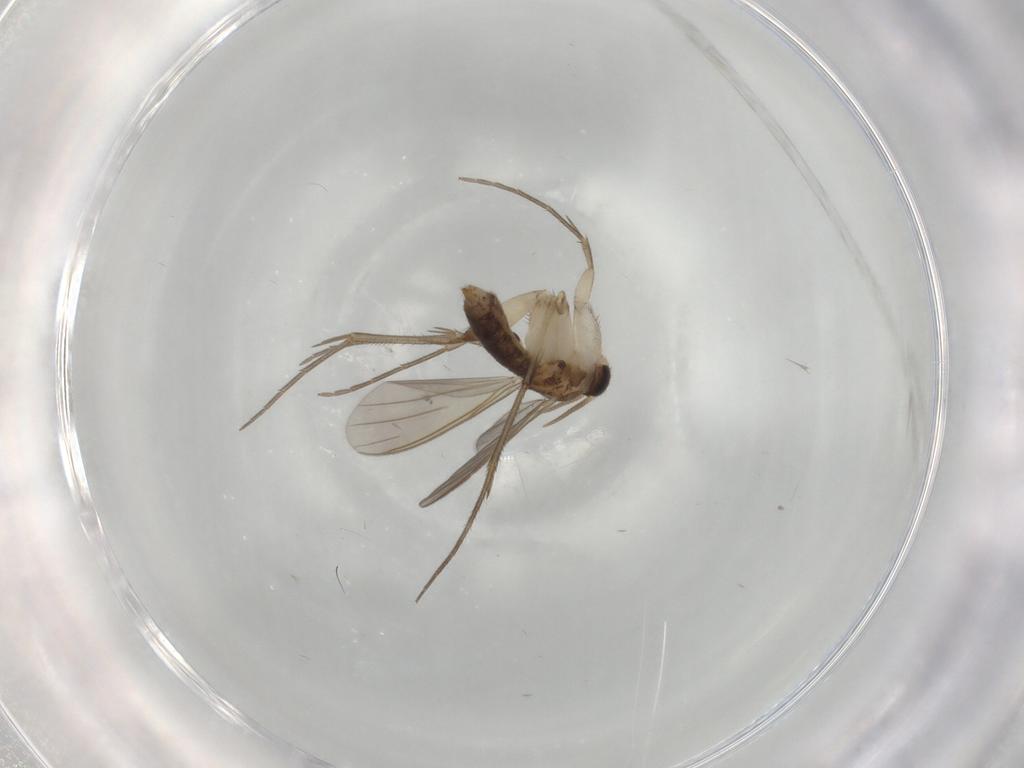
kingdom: Animalia
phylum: Arthropoda
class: Insecta
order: Diptera
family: Mycetophilidae
